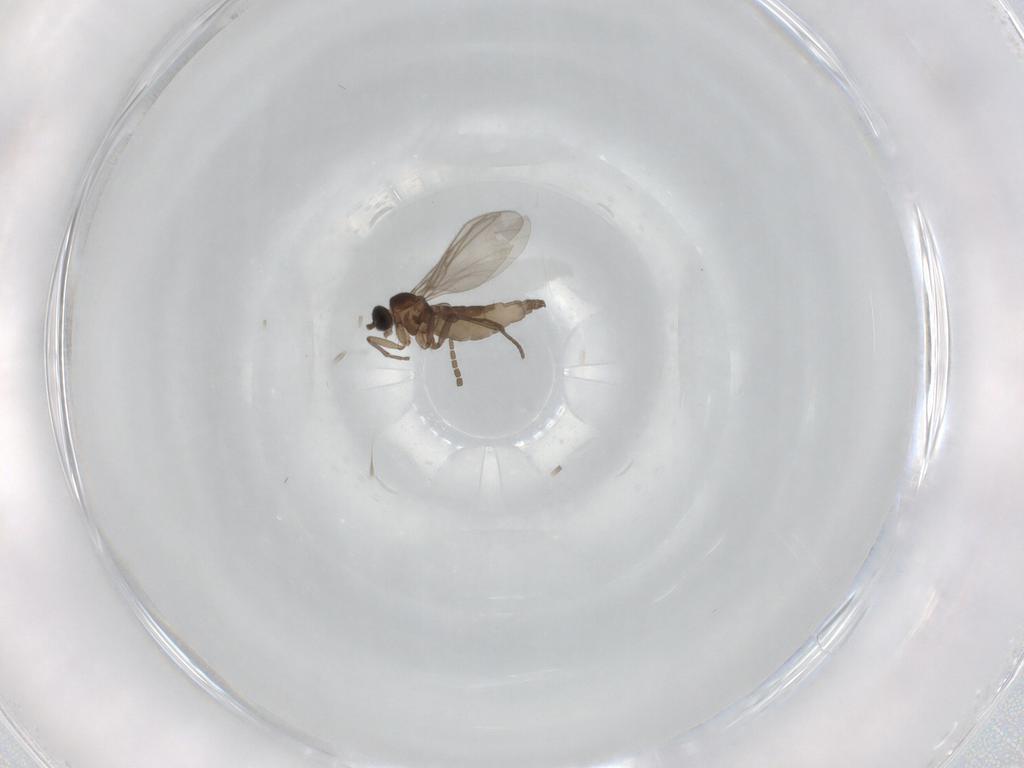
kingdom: Animalia
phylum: Arthropoda
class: Insecta
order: Diptera
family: Mycetophilidae
